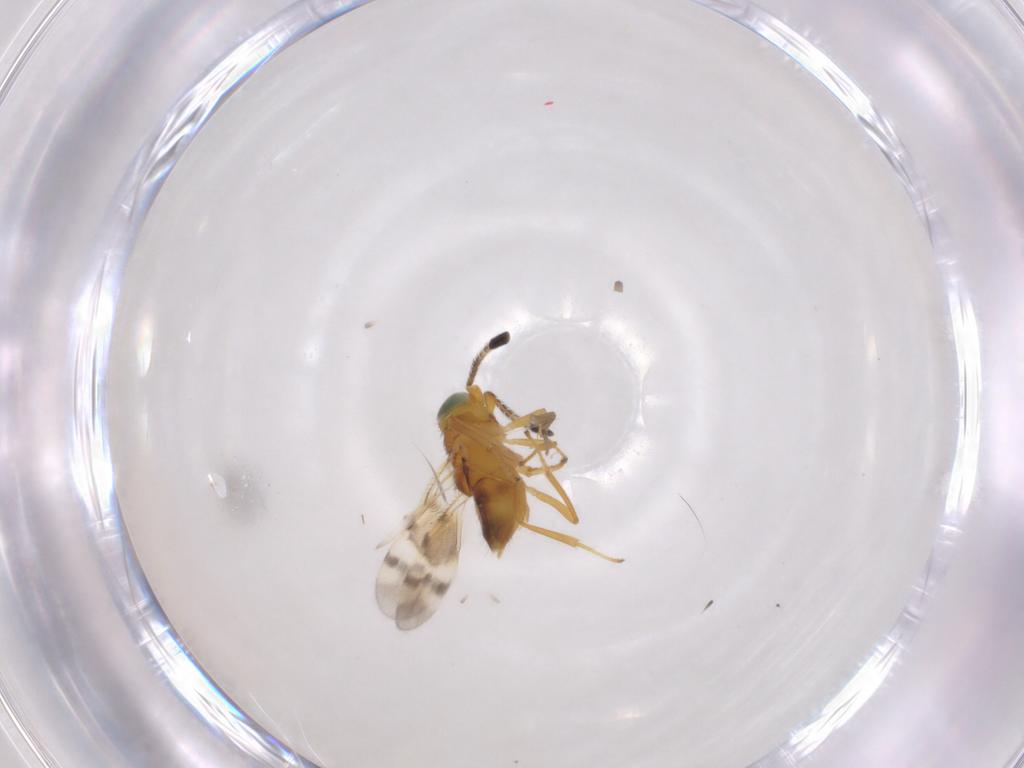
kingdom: Animalia
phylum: Arthropoda
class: Insecta
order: Diptera
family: Phoridae
